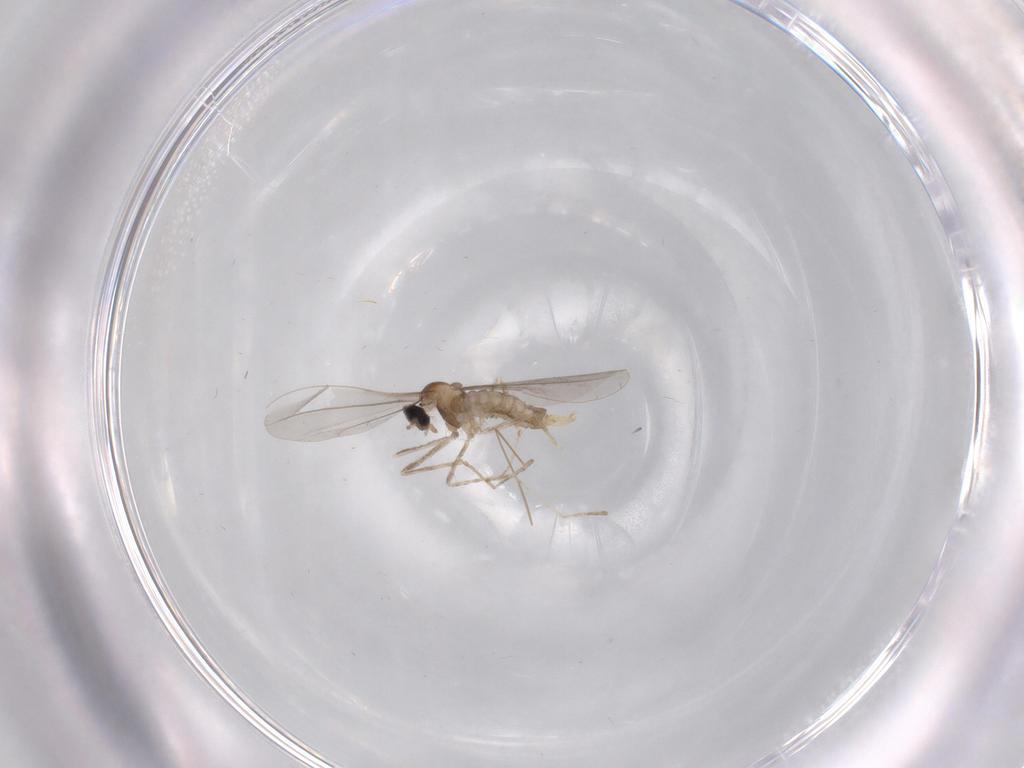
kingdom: Animalia
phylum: Arthropoda
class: Insecta
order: Diptera
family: Cecidomyiidae
